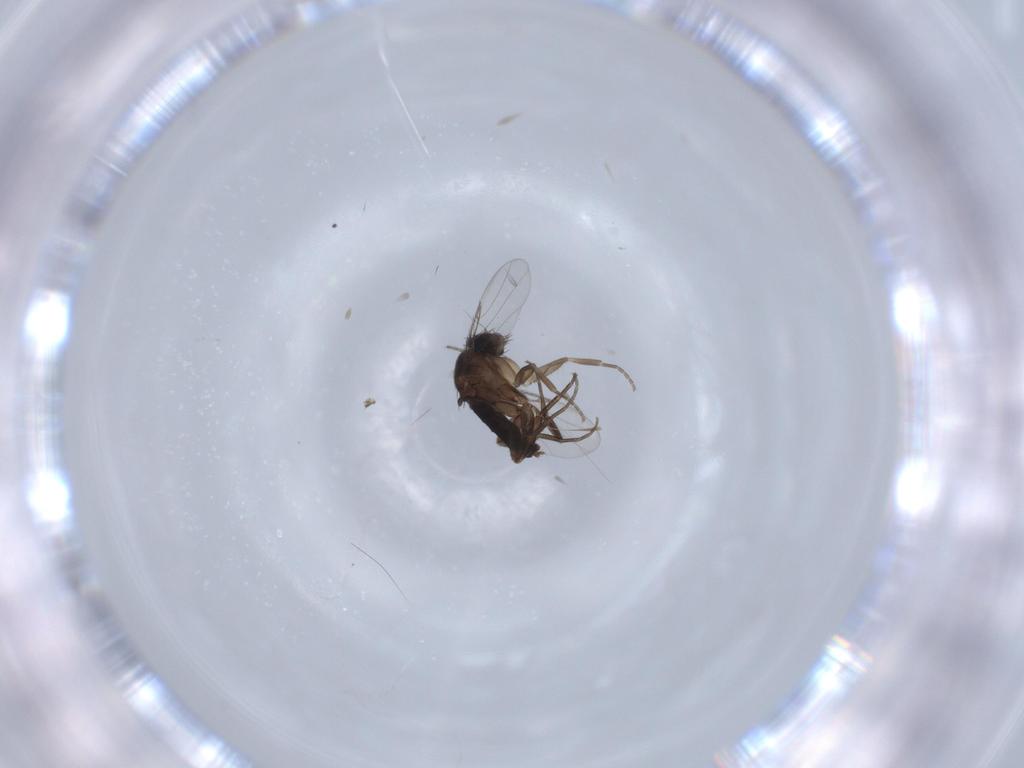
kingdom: Animalia
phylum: Arthropoda
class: Insecta
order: Diptera
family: Phoridae
